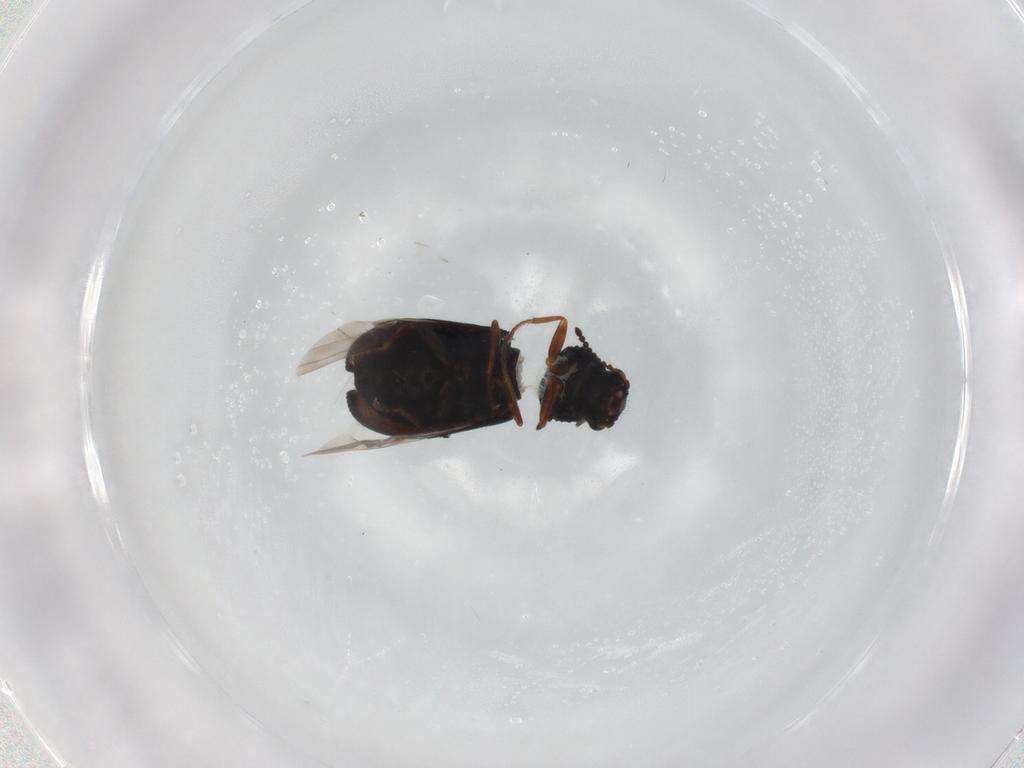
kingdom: Animalia
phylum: Arthropoda
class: Insecta
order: Coleoptera
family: Melyridae
